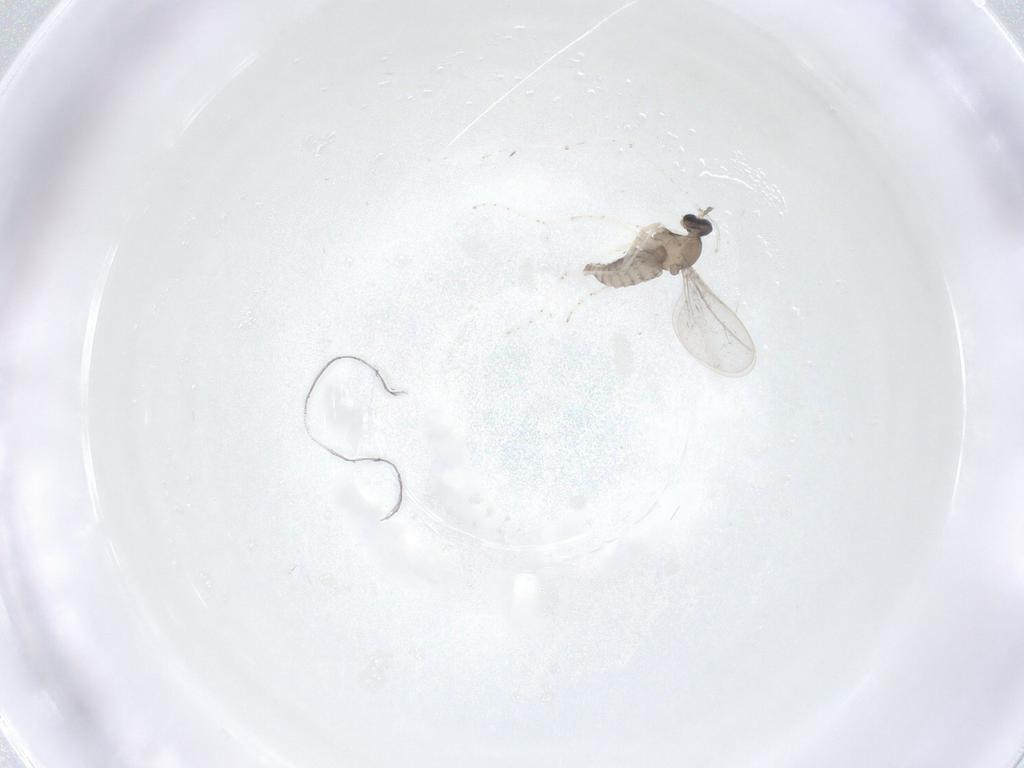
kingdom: Animalia
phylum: Arthropoda
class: Insecta
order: Diptera
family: Cecidomyiidae
